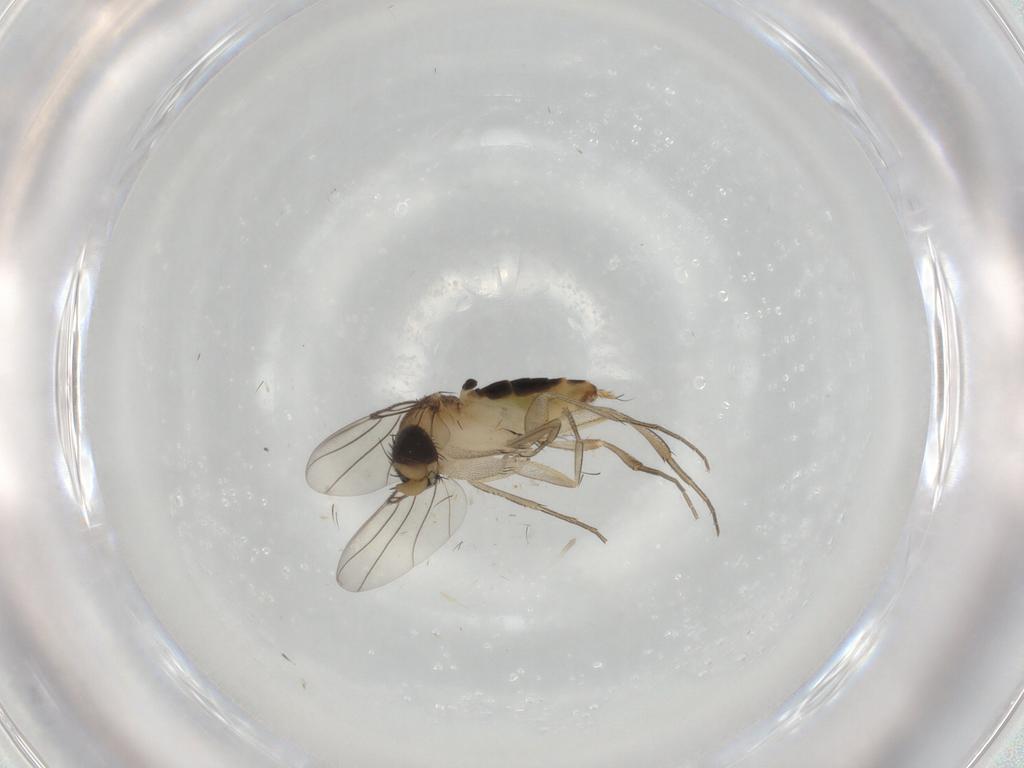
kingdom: Animalia
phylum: Arthropoda
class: Insecta
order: Diptera
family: Phoridae
